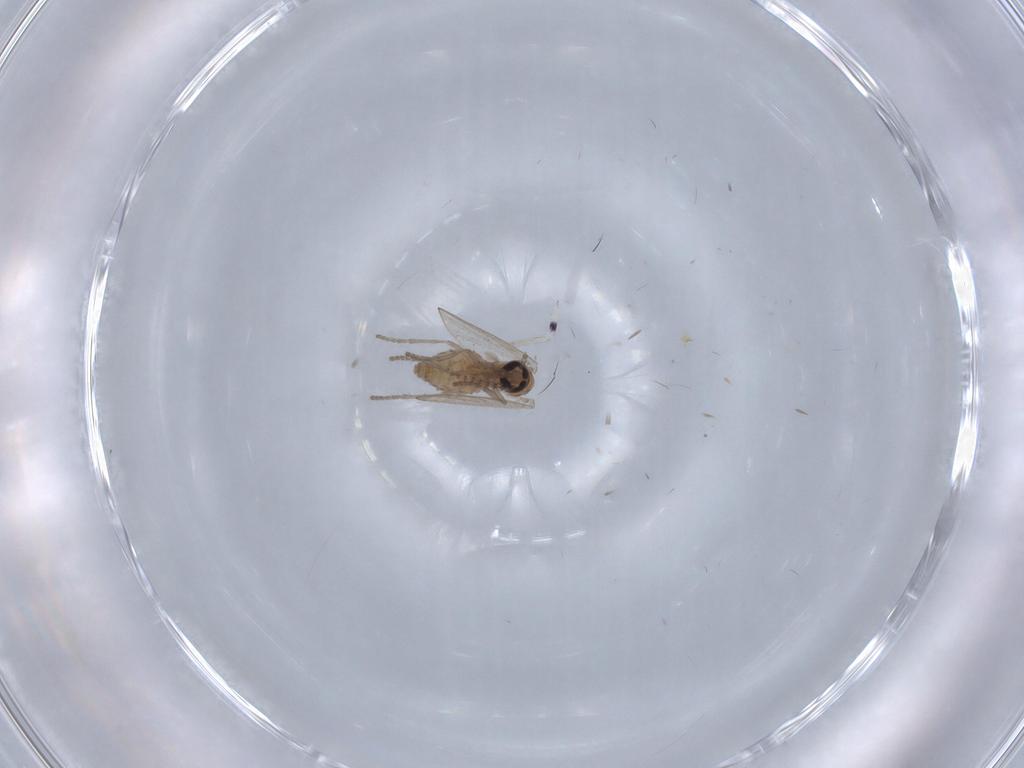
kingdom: Animalia
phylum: Arthropoda
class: Insecta
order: Diptera
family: Psychodidae
